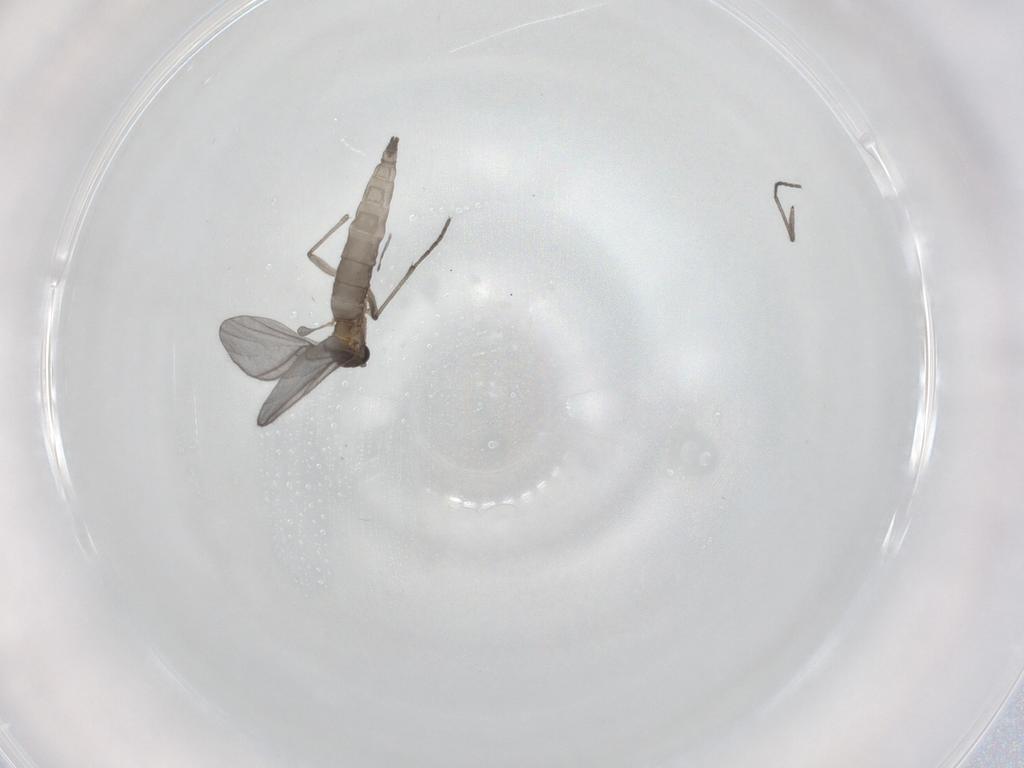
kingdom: Animalia
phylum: Arthropoda
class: Insecta
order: Diptera
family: Sciaridae
